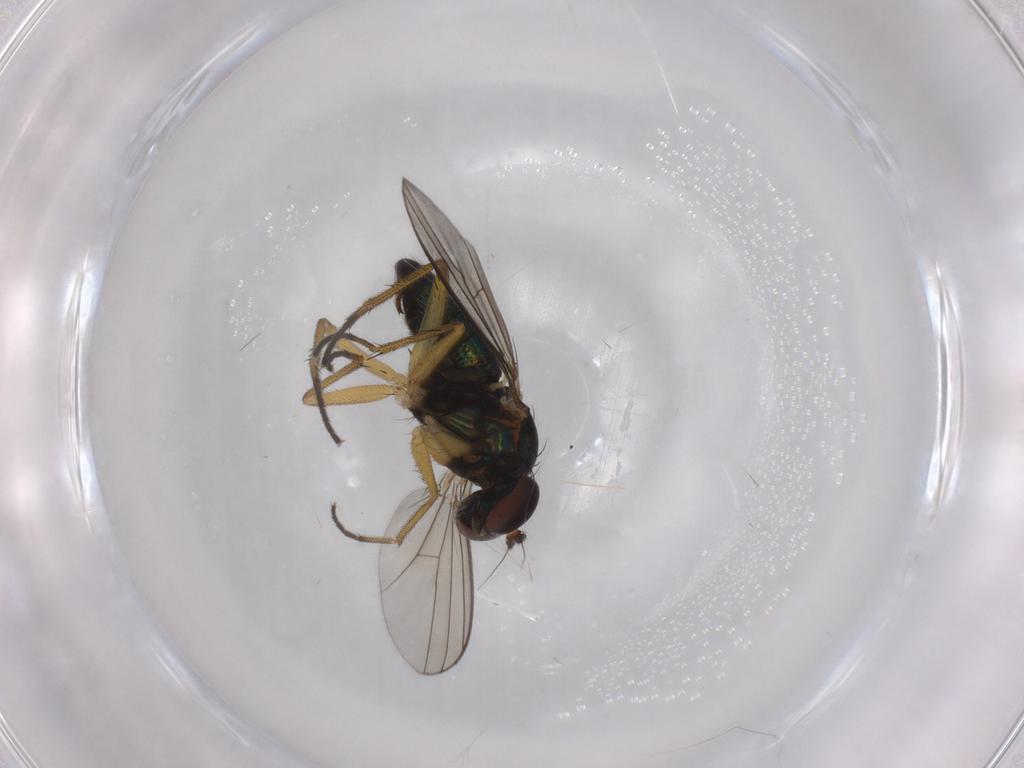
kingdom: Animalia
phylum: Arthropoda
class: Insecta
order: Diptera
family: Dolichopodidae
